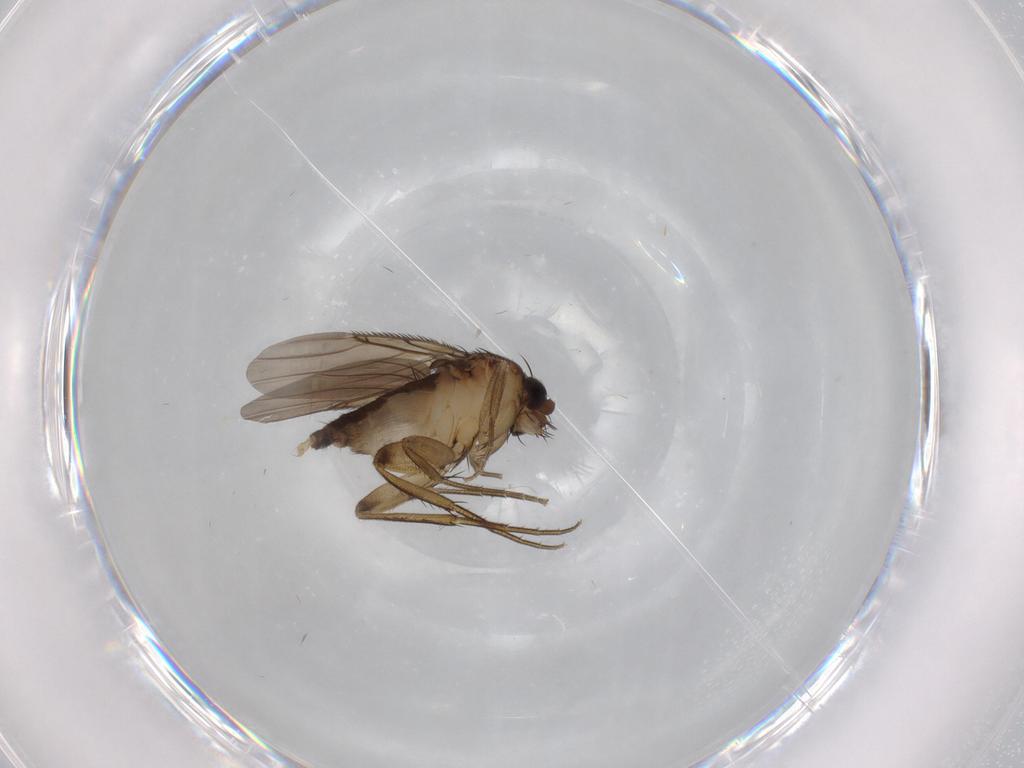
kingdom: Animalia
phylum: Arthropoda
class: Insecta
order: Diptera
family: Phoridae
